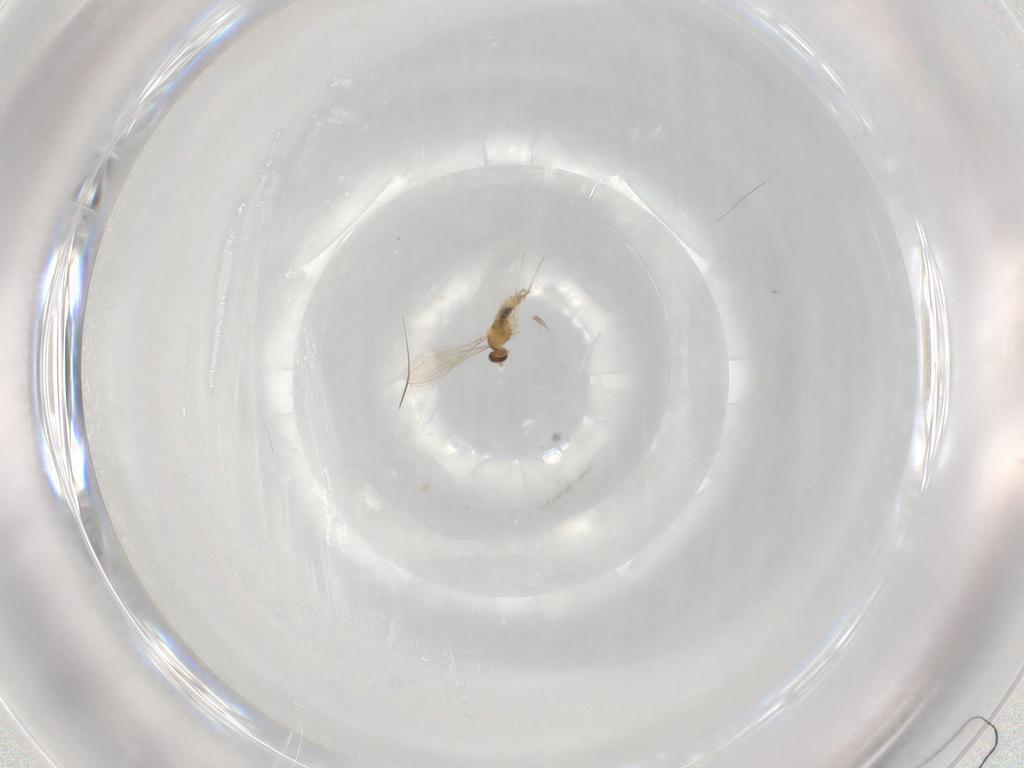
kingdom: Animalia
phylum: Arthropoda
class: Insecta
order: Diptera
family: Cecidomyiidae
